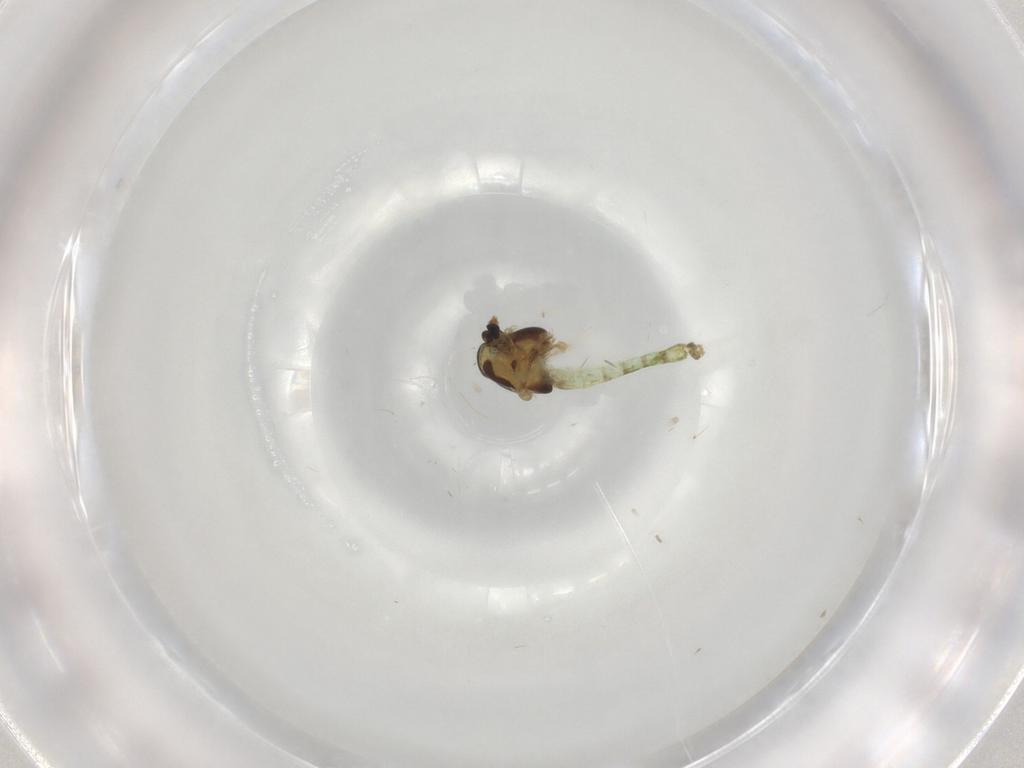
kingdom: Animalia
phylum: Arthropoda
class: Insecta
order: Diptera
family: Chironomidae
